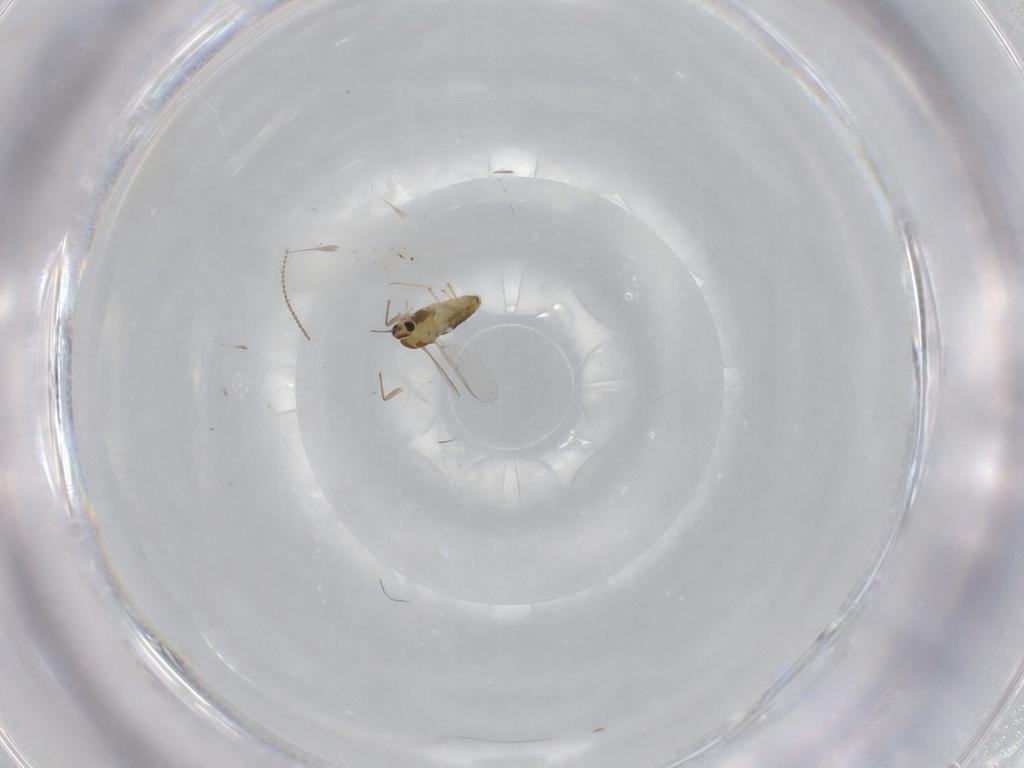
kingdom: Animalia
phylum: Arthropoda
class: Insecta
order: Diptera
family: Chironomidae
